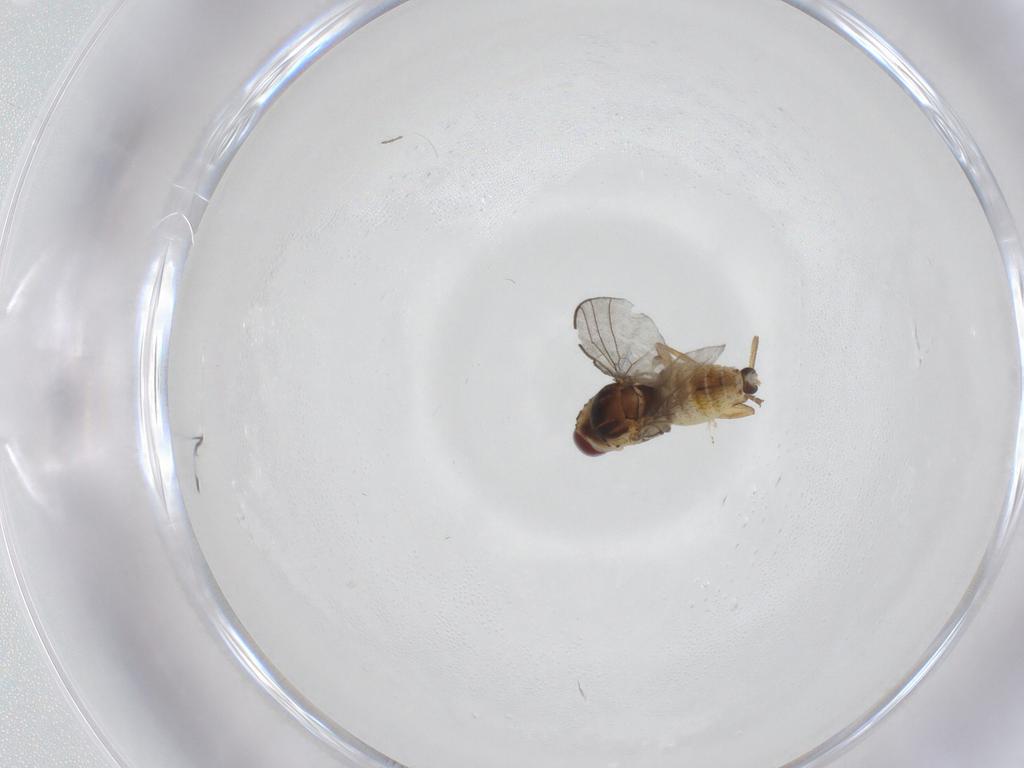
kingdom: Animalia
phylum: Arthropoda
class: Insecta
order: Diptera
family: Agromyzidae
